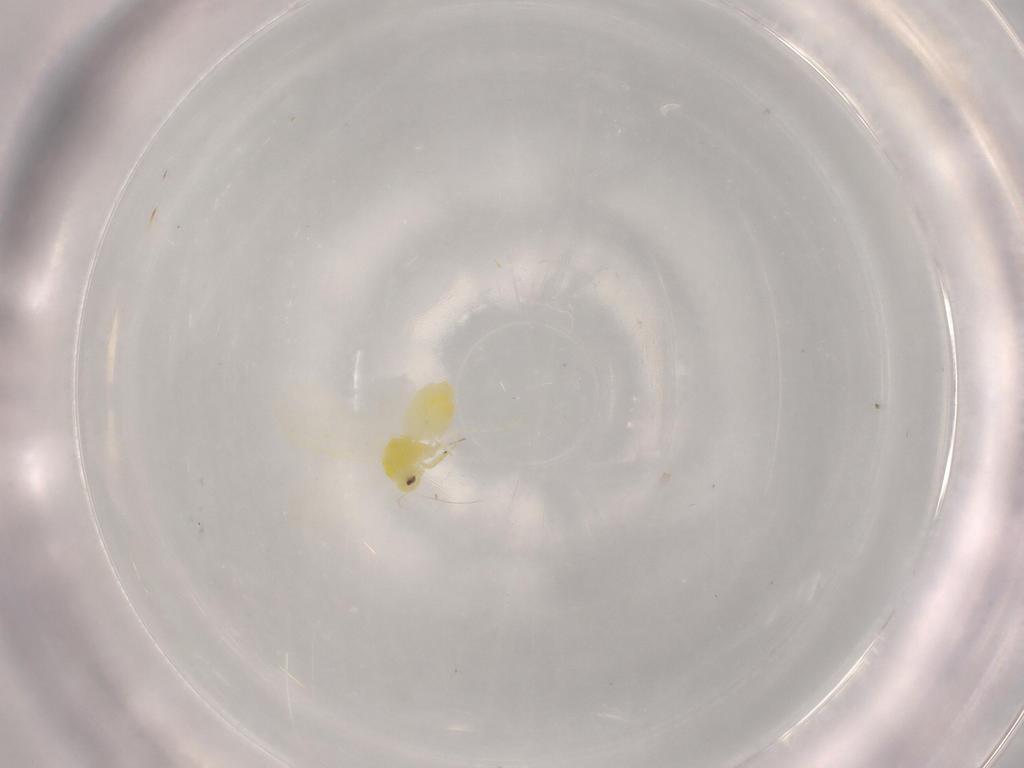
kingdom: Animalia
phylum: Arthropoda
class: Insecta
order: Hemiptera
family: Aleyrodidae
